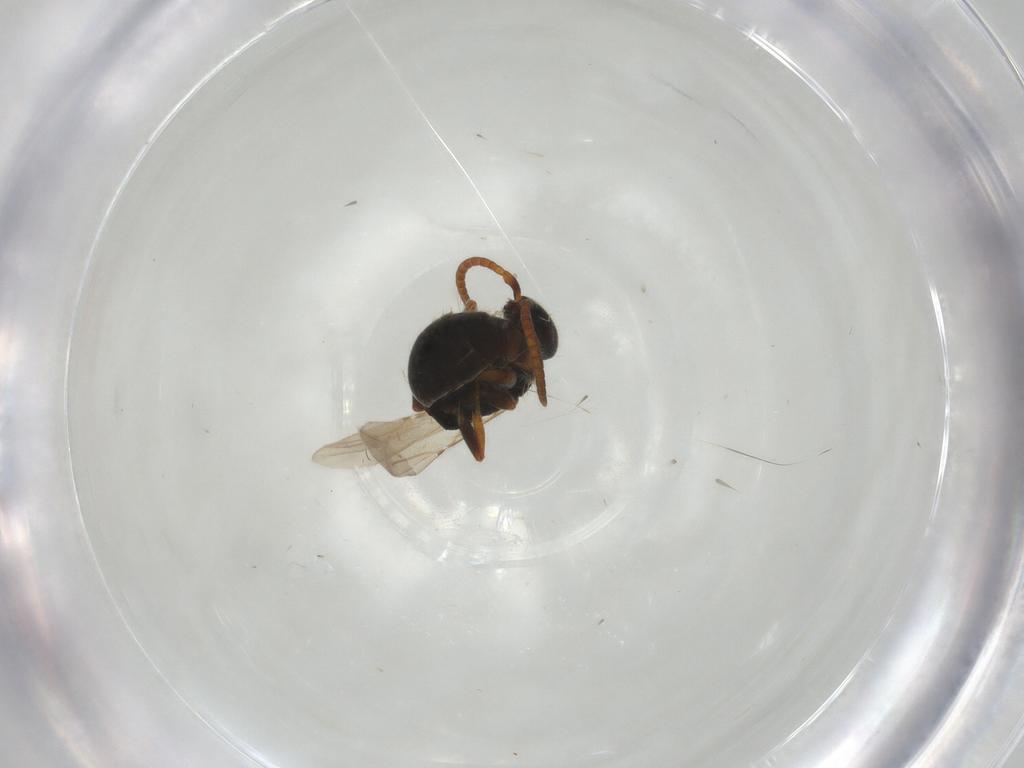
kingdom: Animalia
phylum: Arthropoda
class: Insecta
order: Hymenoptera
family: Bethylidae
